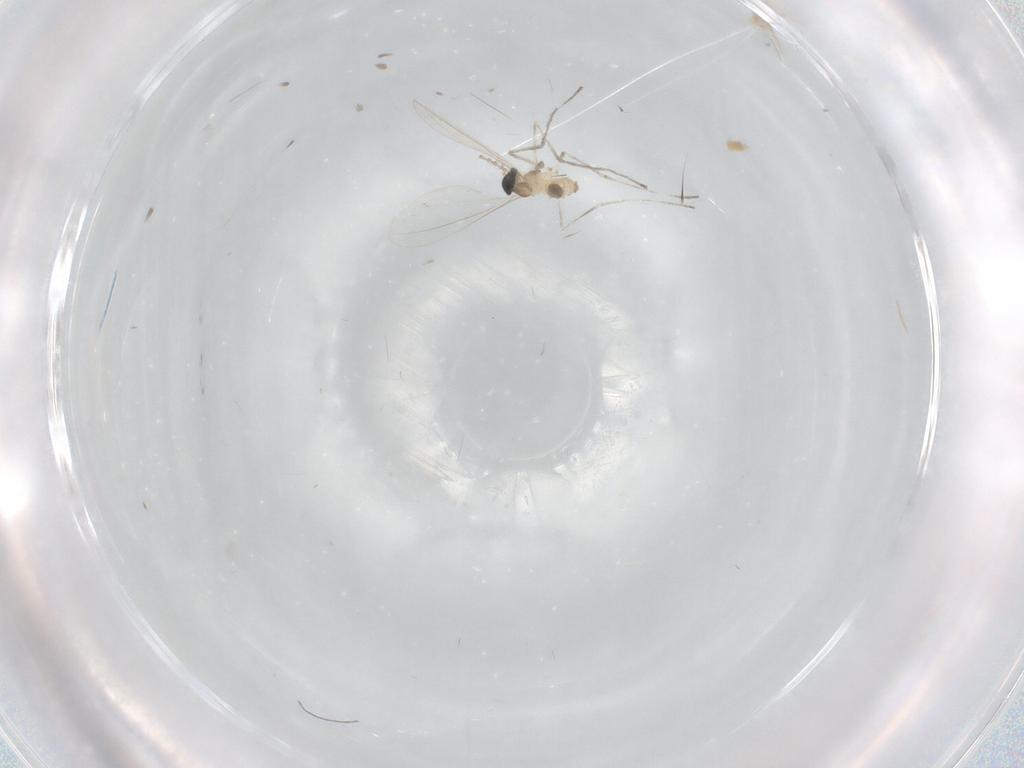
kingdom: Animalia
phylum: Arthropoda
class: Insecta
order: Diptera
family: Cecidomyiidae
